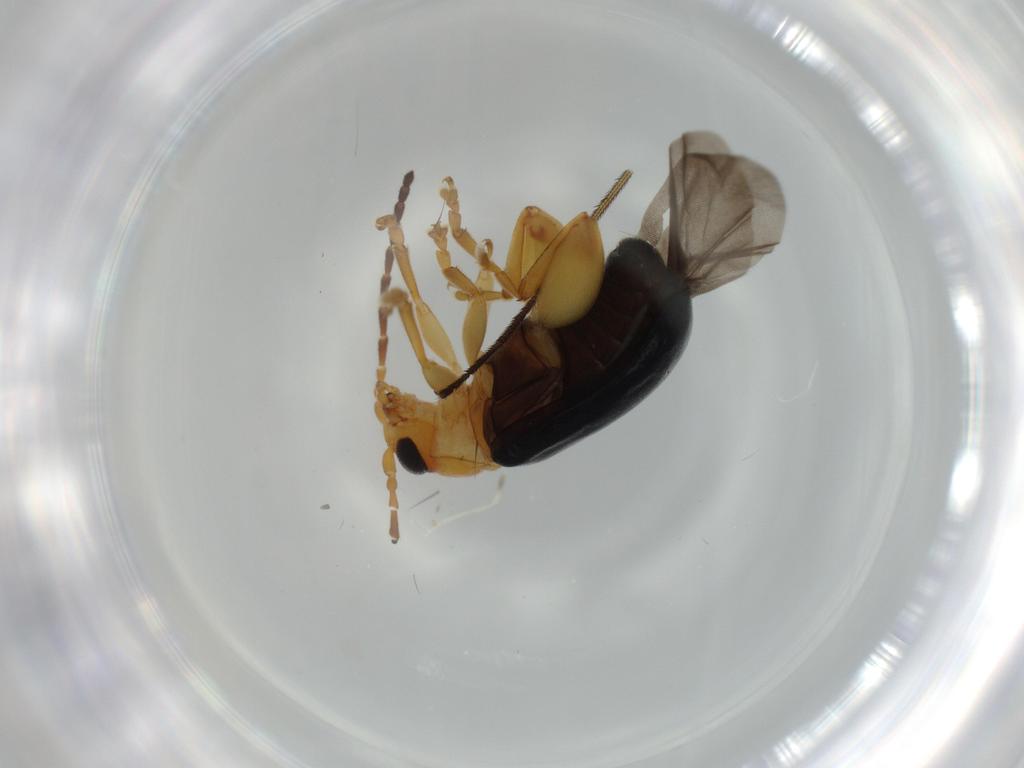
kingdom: Animalia
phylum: Arthropoda
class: Insecta
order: Coleoptera
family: Chrysomelidae
